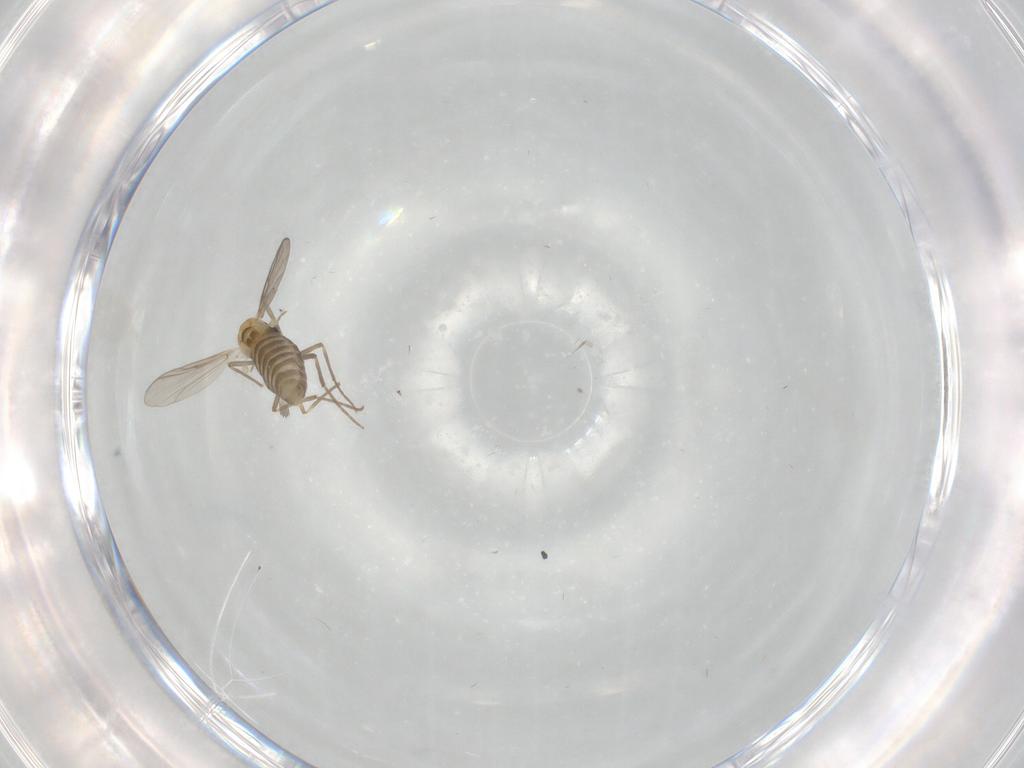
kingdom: Animalia
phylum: Arthropoda
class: Insecta
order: Diptera
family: Chironomidae
